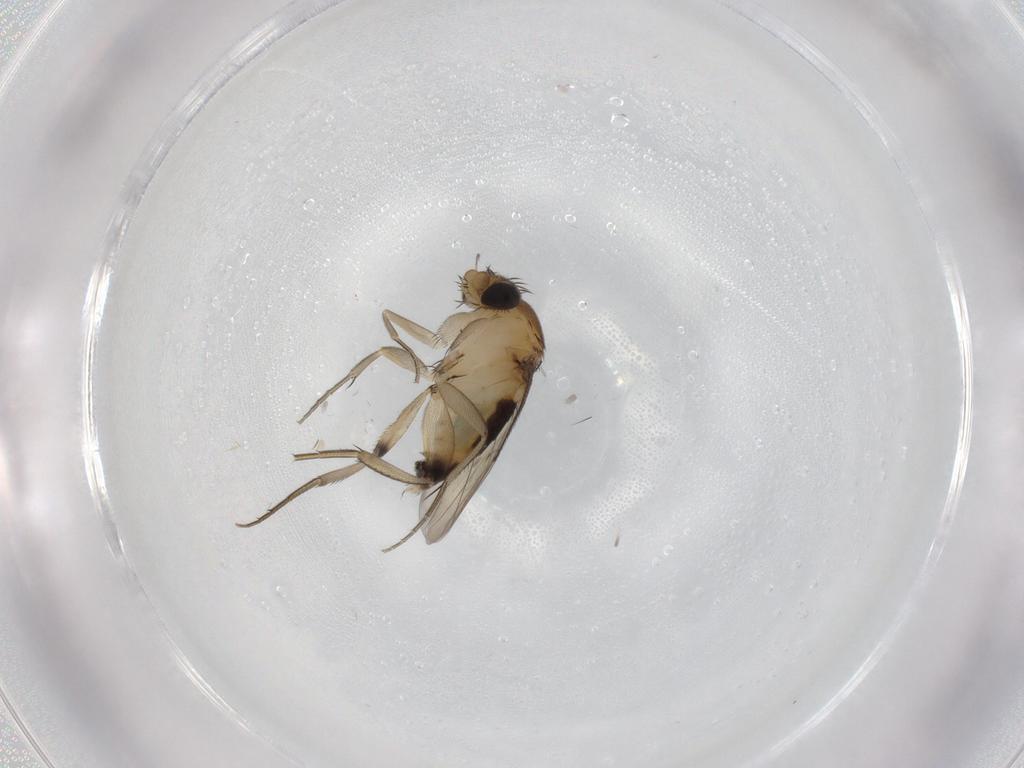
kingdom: Animalia
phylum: Arthropoda
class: Insecta
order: Diptera
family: Phoridae
